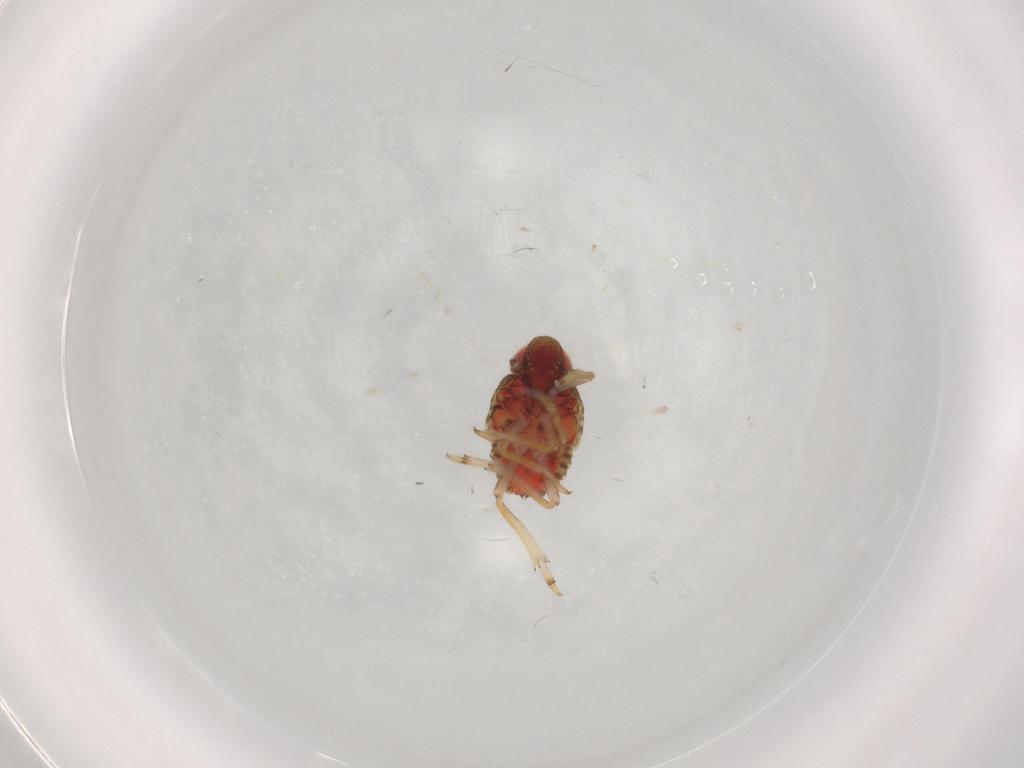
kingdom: Animalia
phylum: Arthropoda
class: Insecta
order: Hemiptera
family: Issidae
